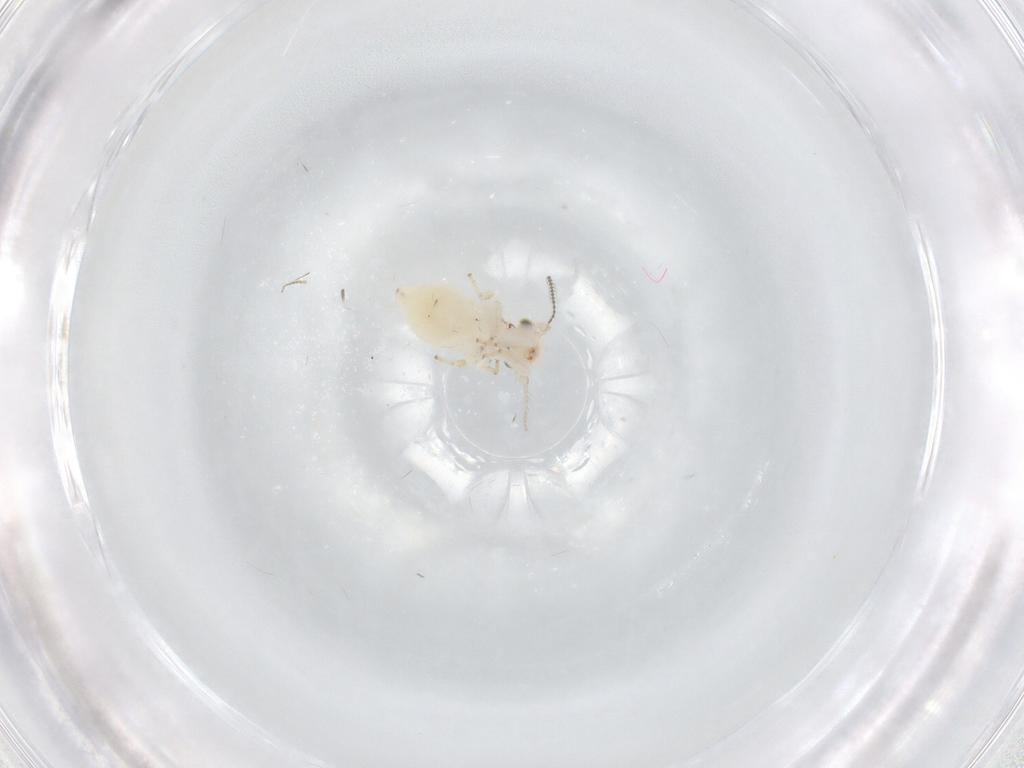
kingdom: Animalia
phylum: Arthropoda
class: Insecta
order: Psocodea
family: Lepidopsocidae
